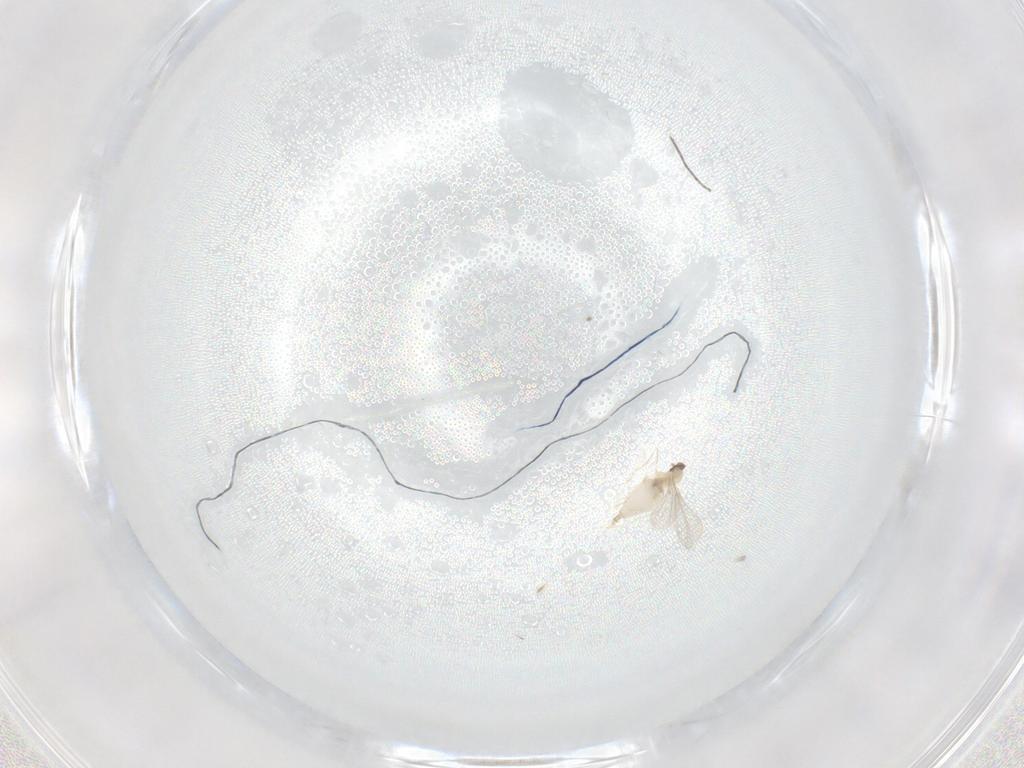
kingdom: Animalia
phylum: Arthropoda
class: Insecta
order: Diptera
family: Cecidomyiidae
